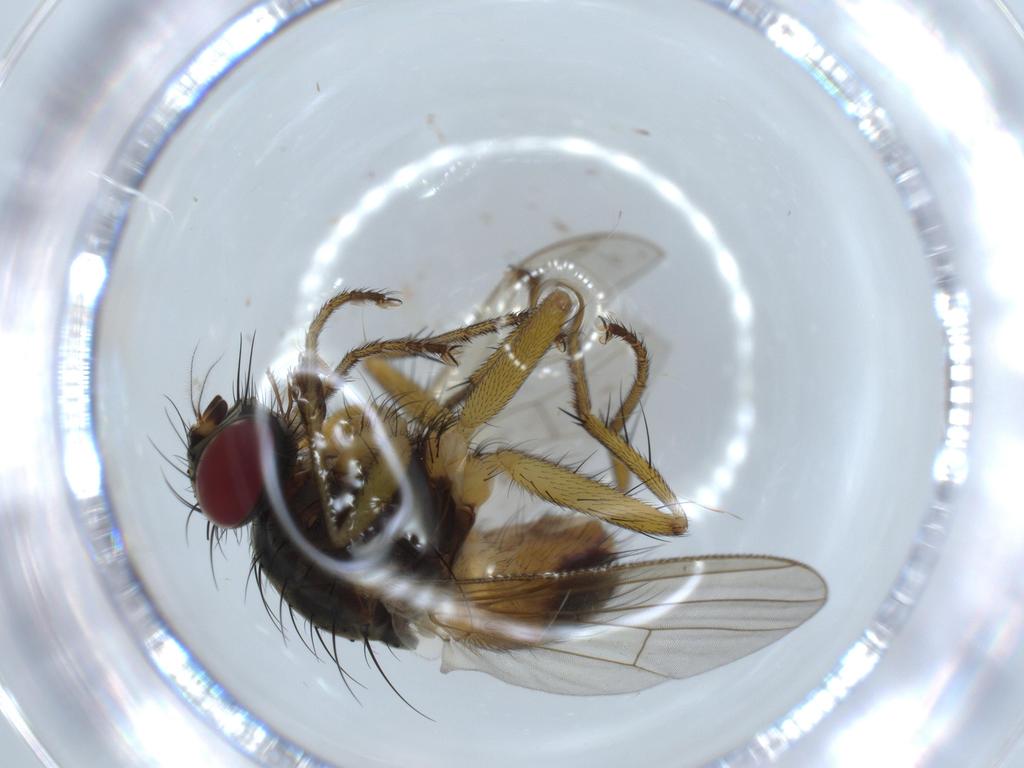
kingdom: Animalia
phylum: Arthropoda
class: Insecta
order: Diptera
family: Muscidae
